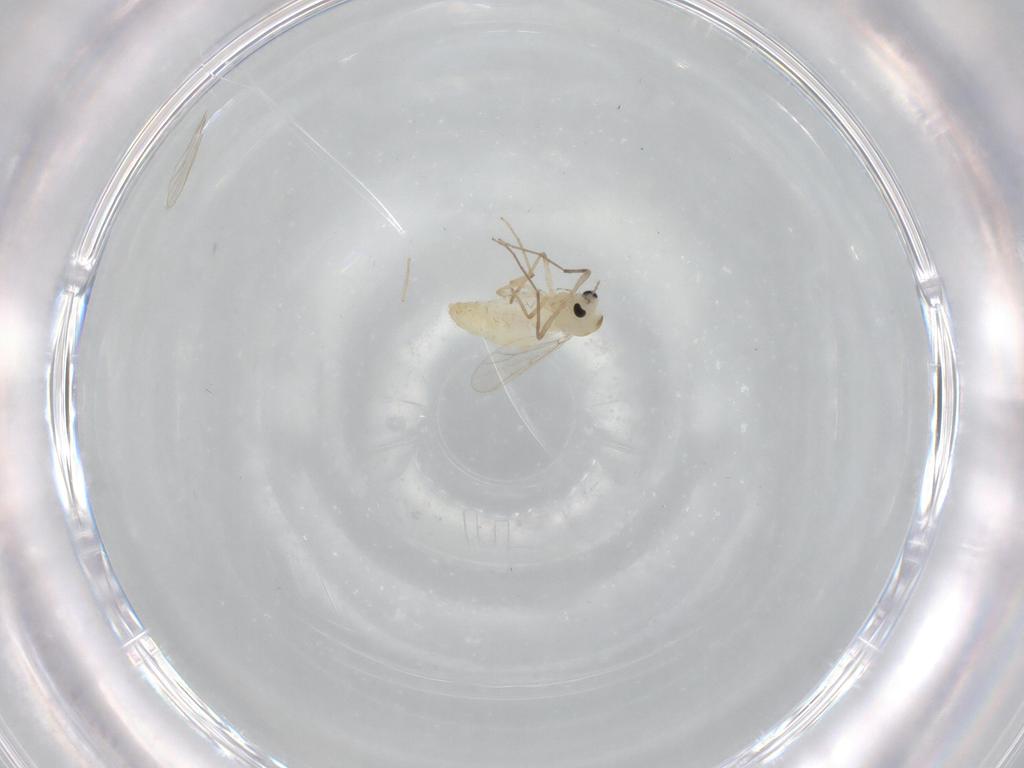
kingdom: Animalia
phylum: Arthropoda
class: Insecta
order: Diptera
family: Chironomidae
